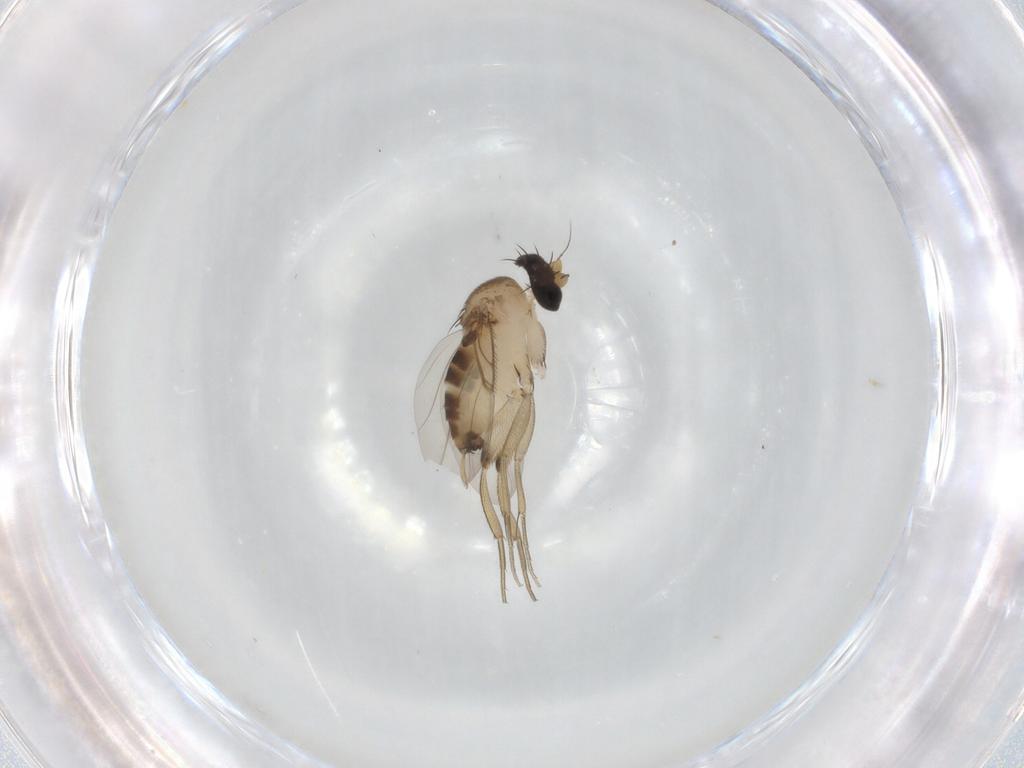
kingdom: Animalia
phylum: Arthropoda
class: Insecta
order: Diptera
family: Phoridae
